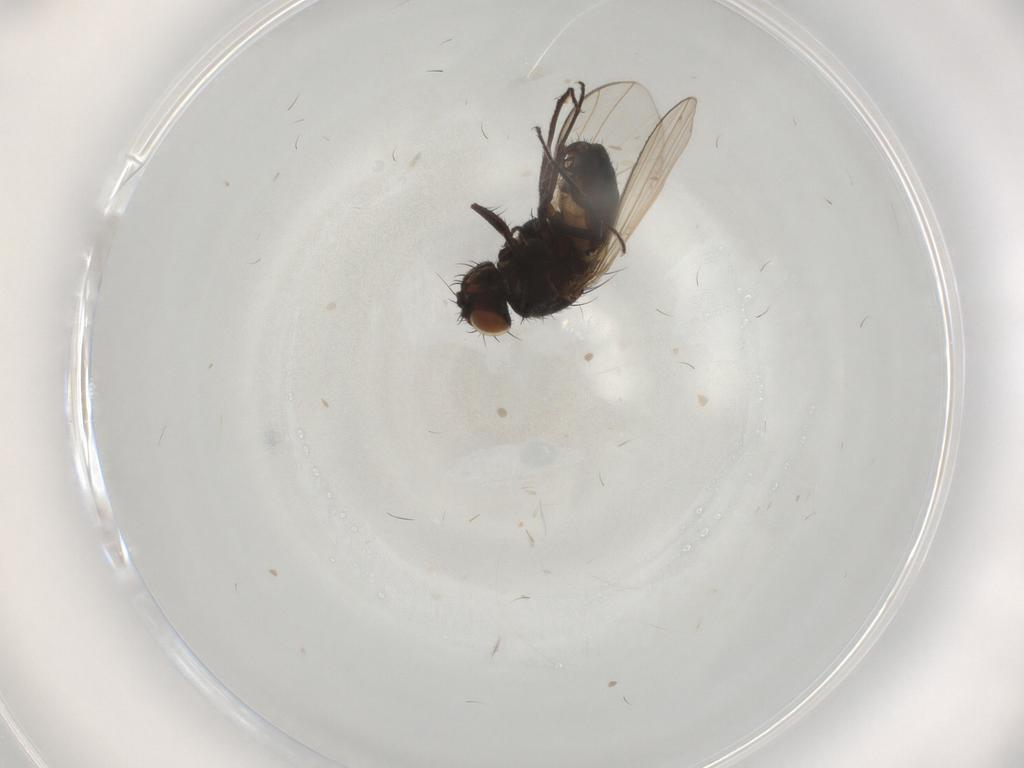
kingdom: Animalia
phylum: Arthropoda
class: Insecta
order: Diptera
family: Carnidae
